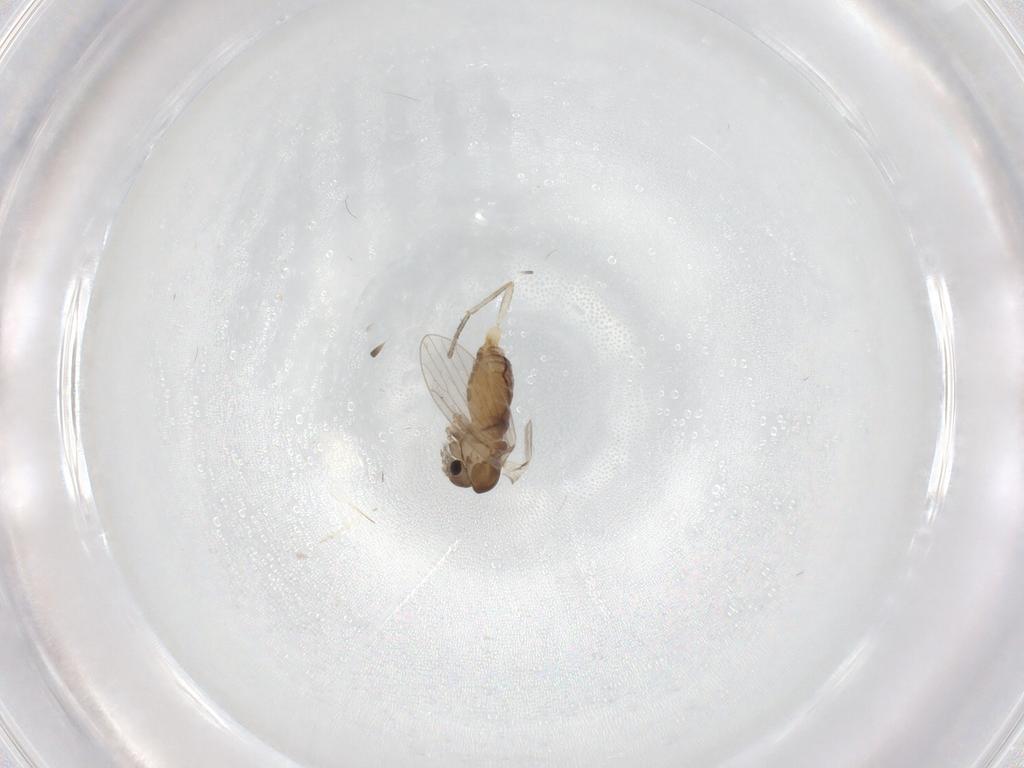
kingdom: Animalia
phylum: Arthropoda
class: Insecta
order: Diptera
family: Cecidomyiidae
